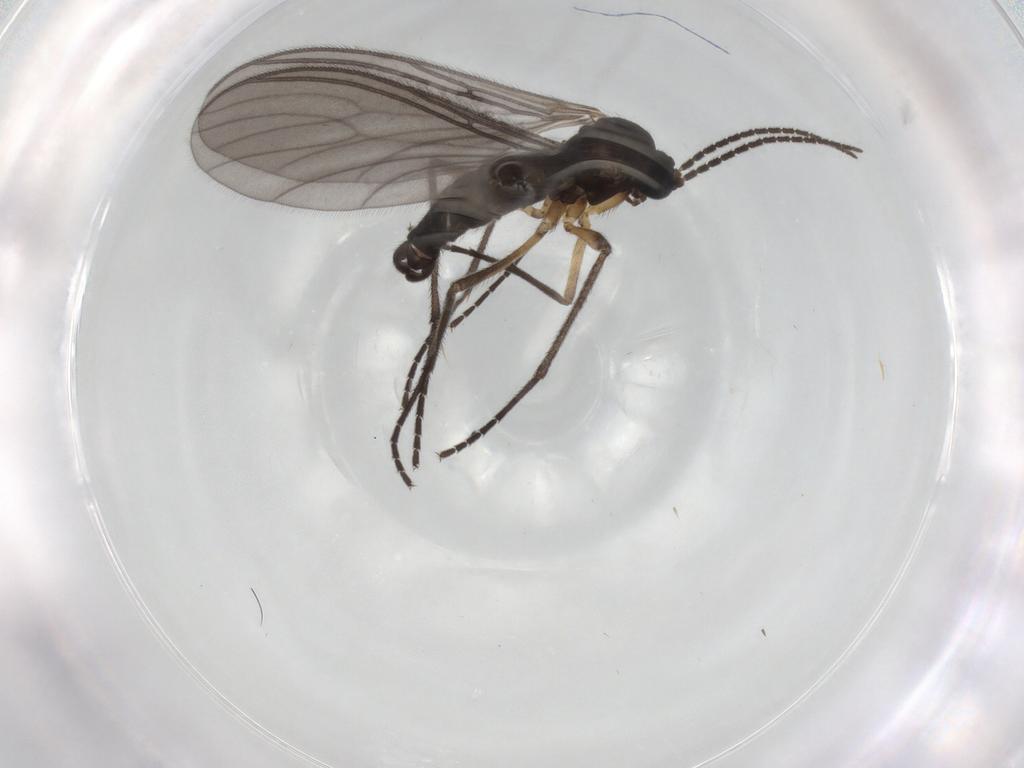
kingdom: Animalia
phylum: Arthropoda
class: Insecta
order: Diptera
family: Sciaridae
